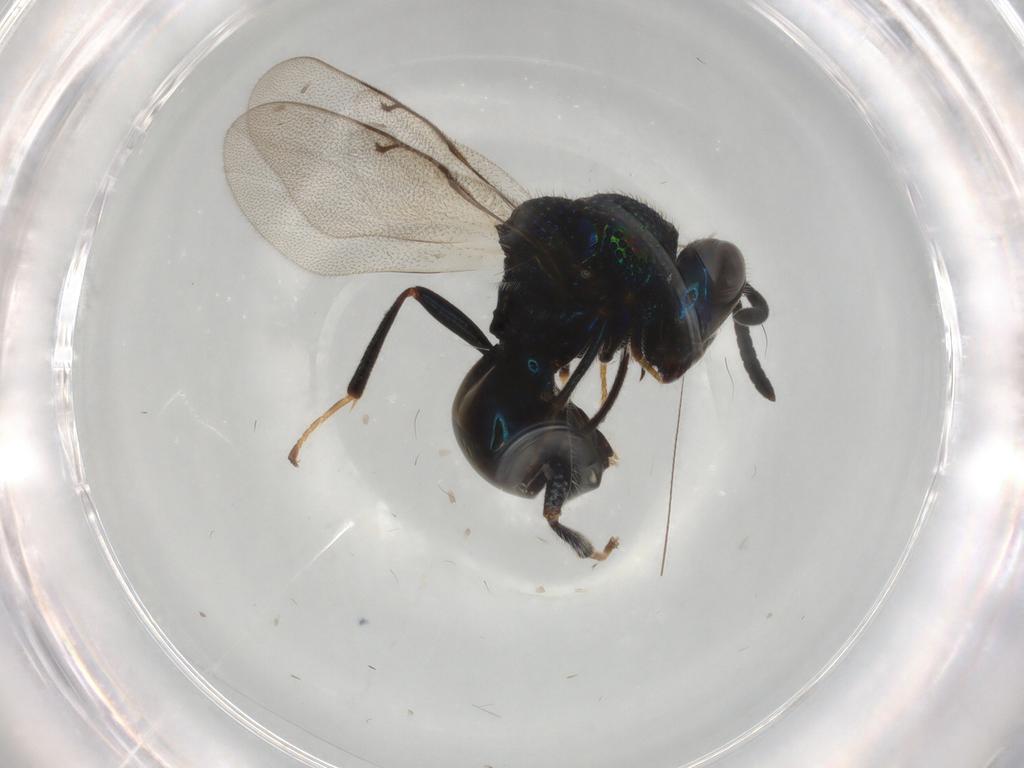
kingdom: Animalia
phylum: Arthropoda
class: Insecta
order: Hymenoptera
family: Perilampidae
